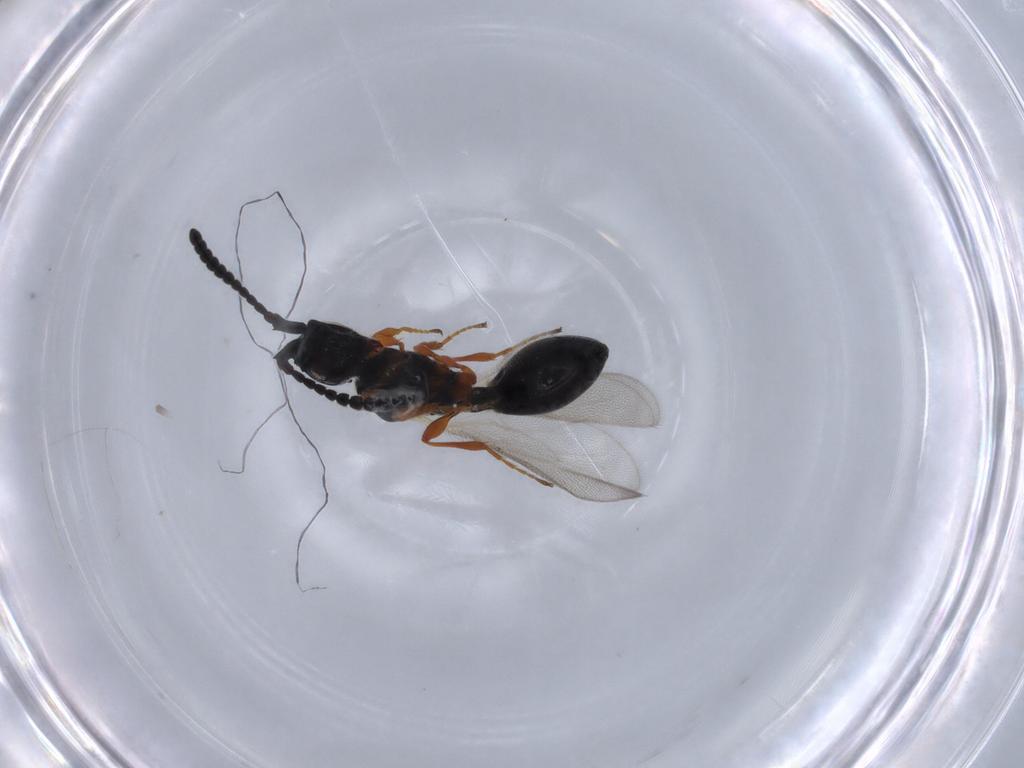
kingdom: Animalia
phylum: Arthropoda
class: Insecta
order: Hymenoptera
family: Diapriidae
